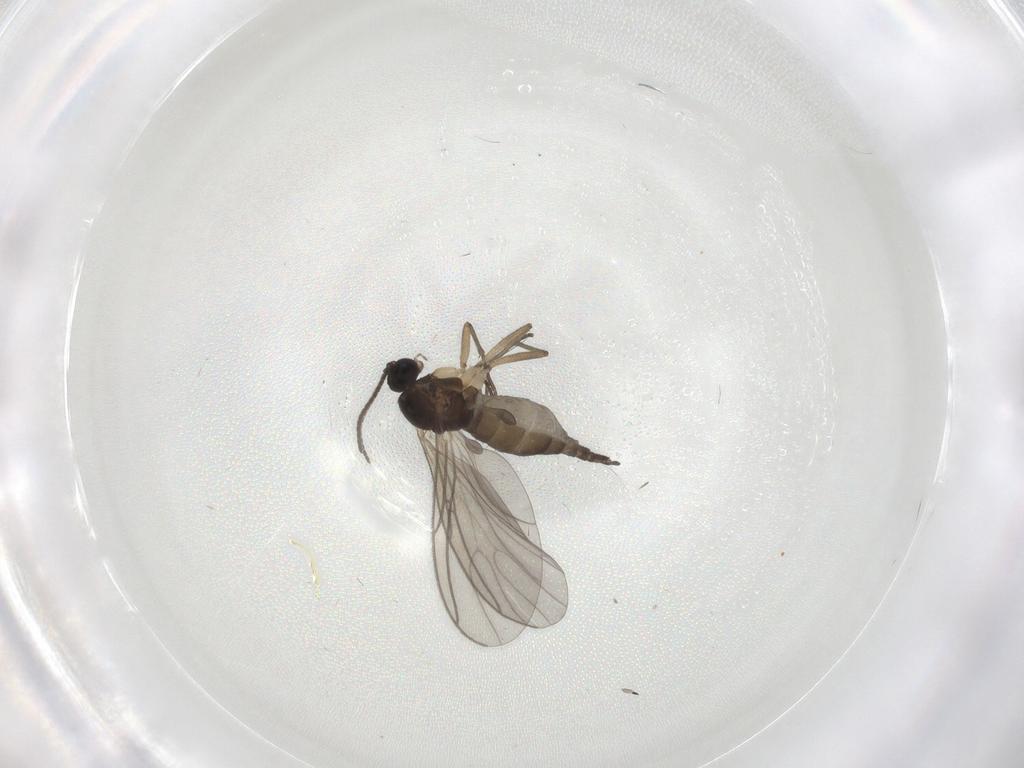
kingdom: Animalia
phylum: Arthropoda
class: Insecta
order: Diptera
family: Sciaridae
